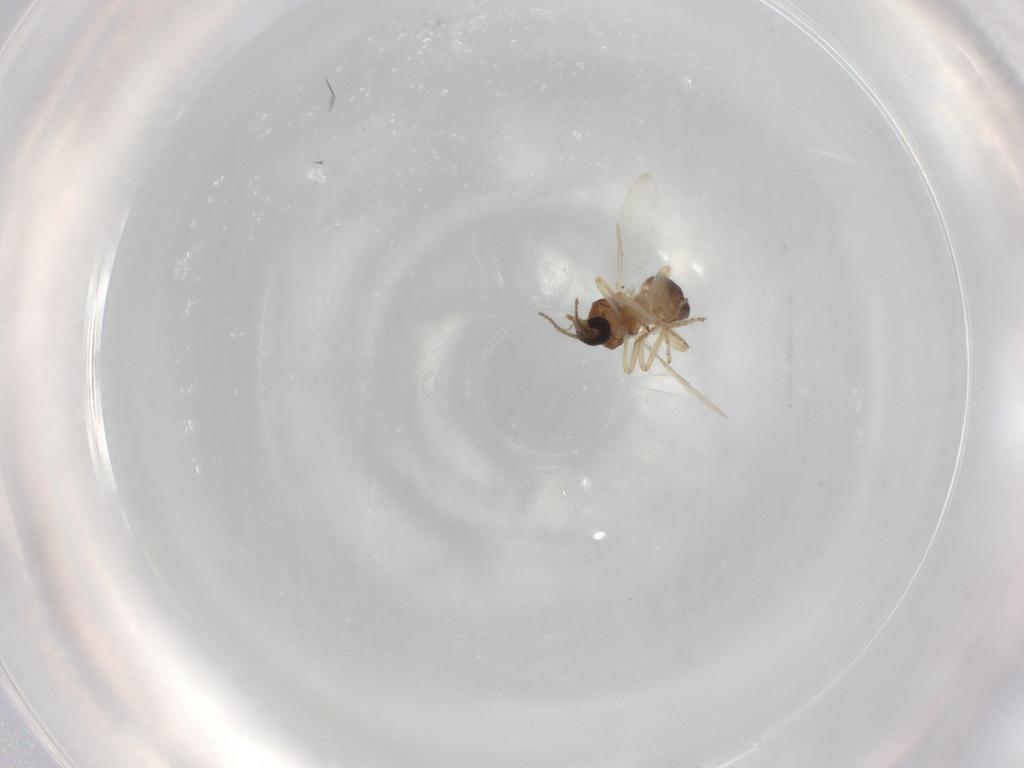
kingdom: Animalia
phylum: Arthropoda
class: Insecta
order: Diptera
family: Ceratopogonidae
